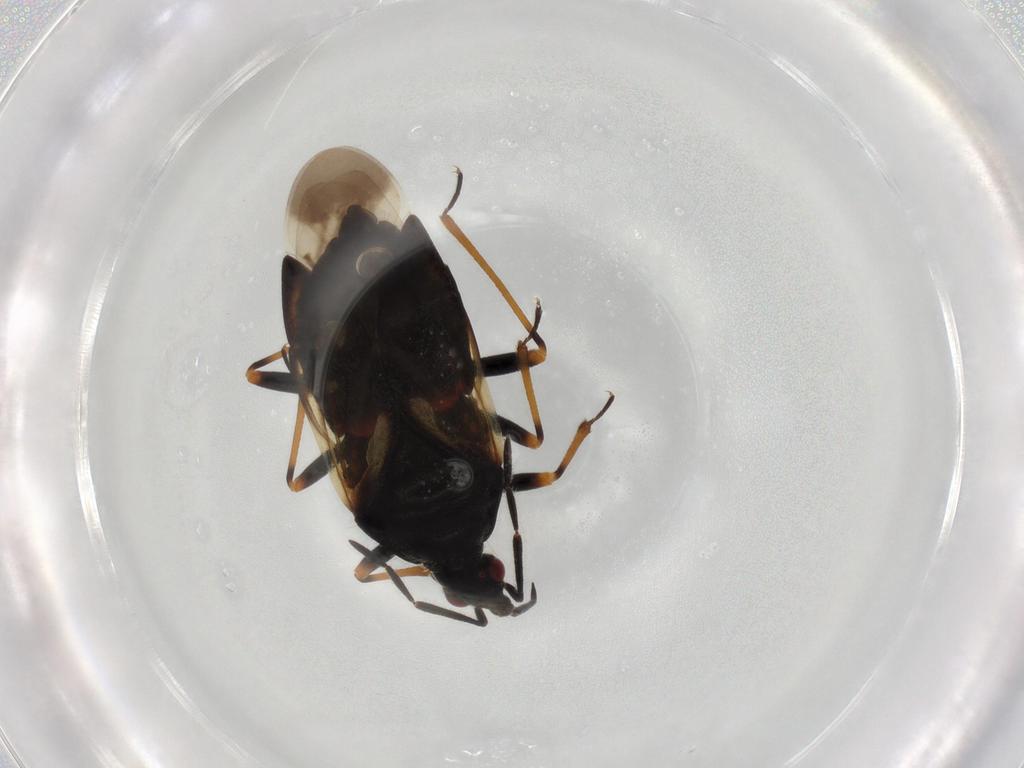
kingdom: Animalia
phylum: Arthropoda
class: Insecta
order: Hemiptera
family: Miridae
